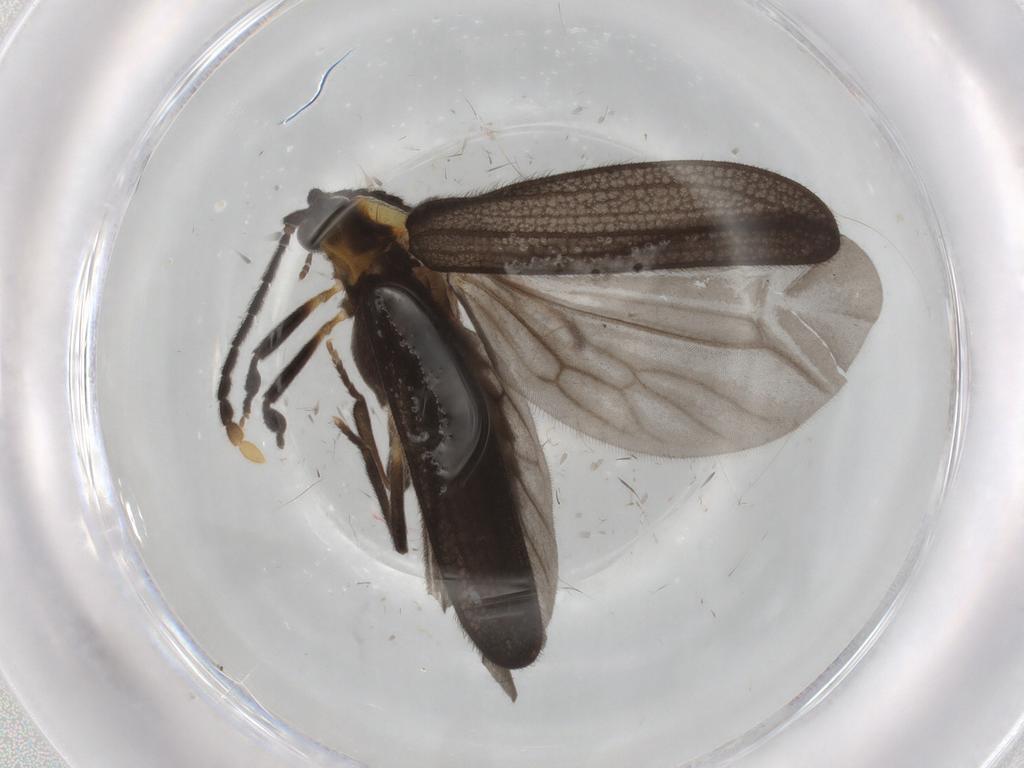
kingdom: Animalia
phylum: Arthropoda
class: Insecta
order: Coleoptera
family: Lycidae
